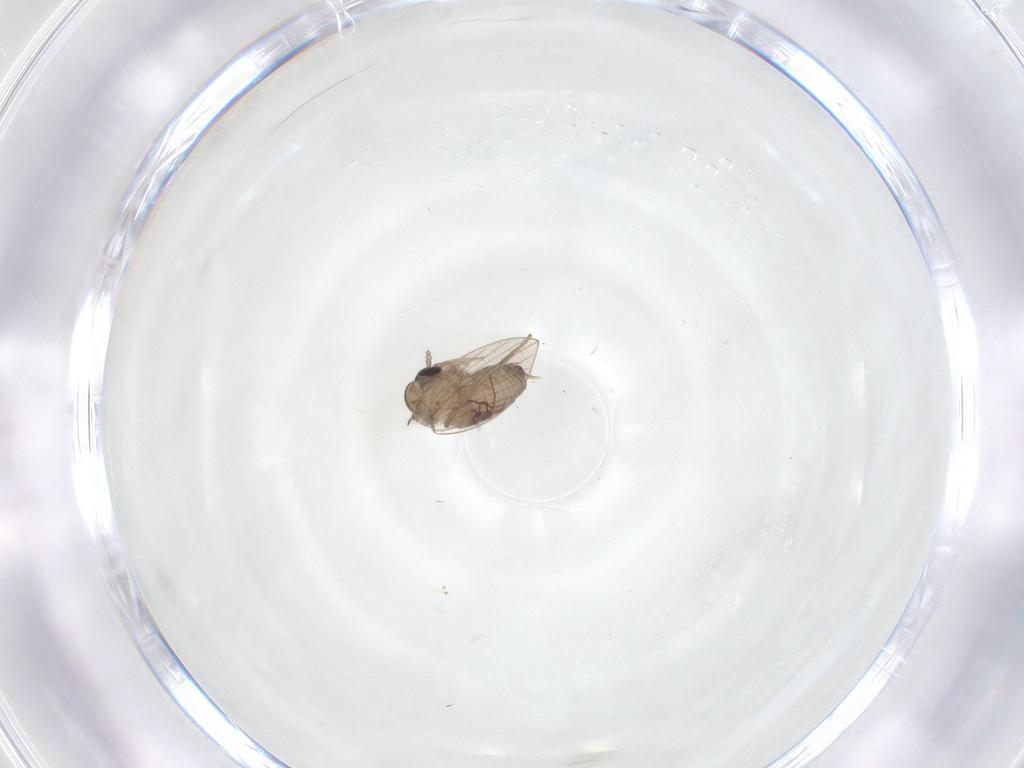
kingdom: Animalia
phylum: Arthropoda
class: Insecta
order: Diptera
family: Psychodidae
